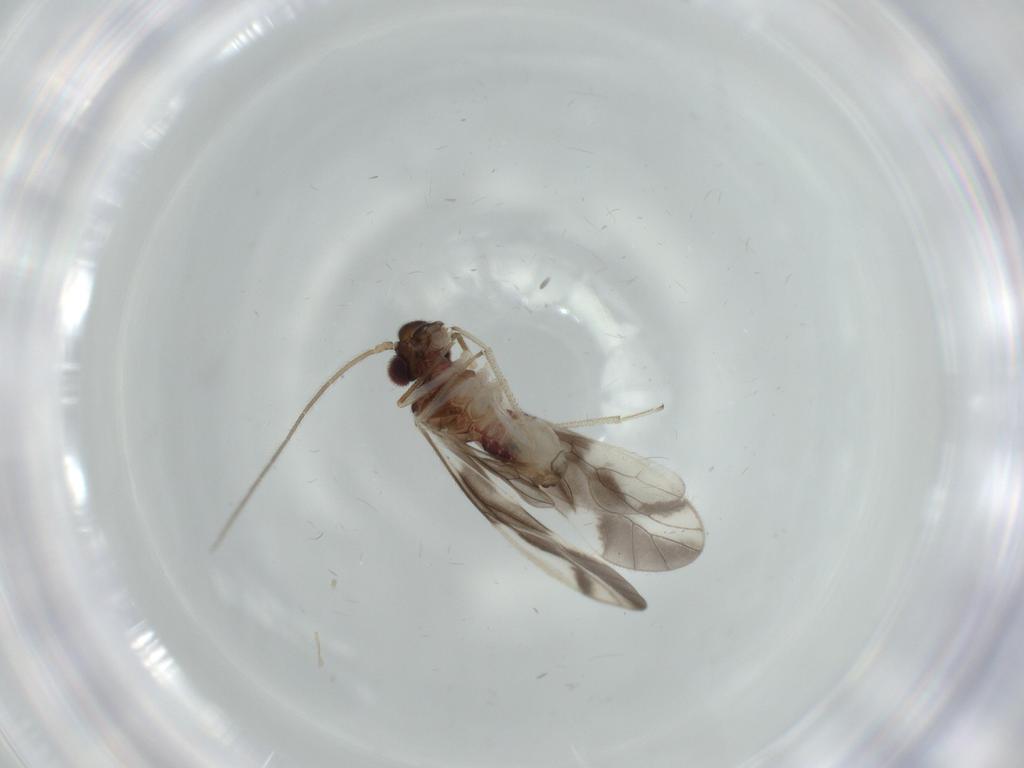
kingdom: Animalia
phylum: Arthropoda
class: Insecta
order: Psocodea
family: Caeciliusidae
